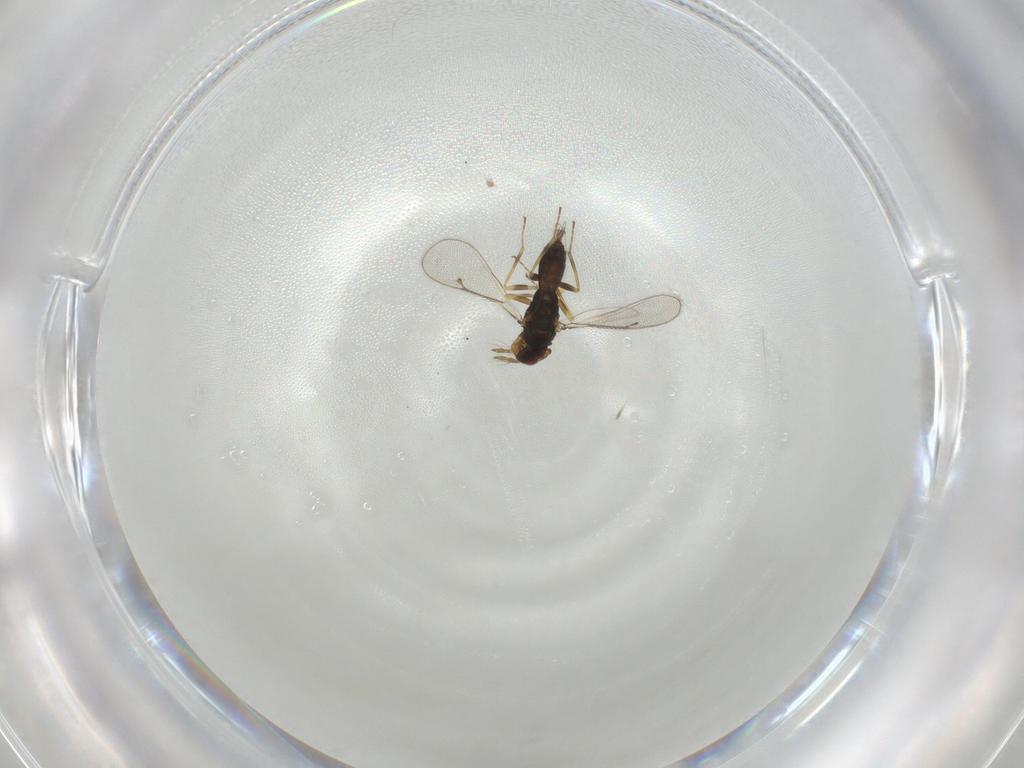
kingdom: Animalia
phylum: Arthropoda
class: Insecta
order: Hymenoptera
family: Eulophidae
